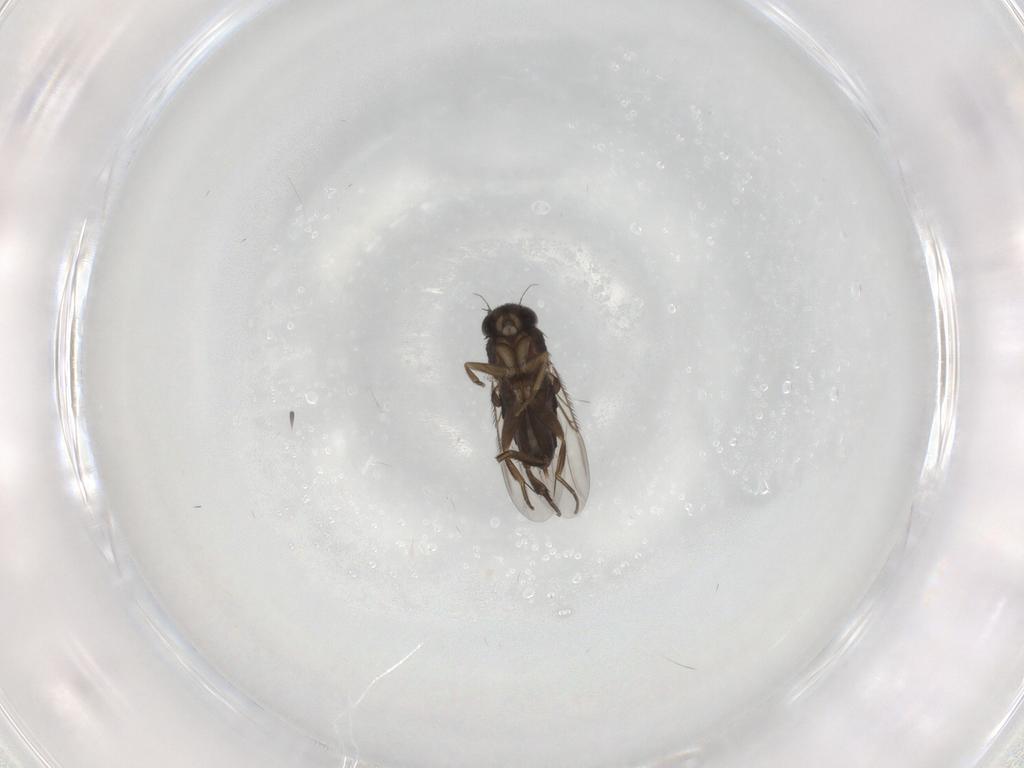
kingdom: Animalia
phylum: Arthropoda
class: Insecta
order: Diptera
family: Phoridae
